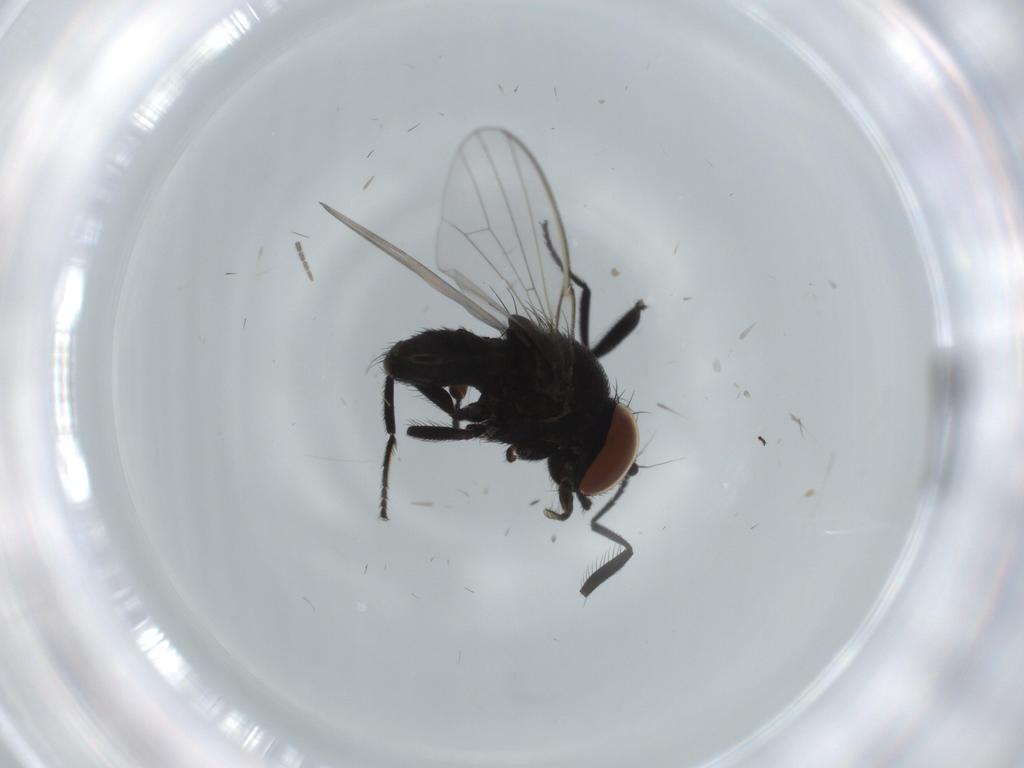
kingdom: Animalia
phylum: Arthropoda
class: Insecta
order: Diptera
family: Milichiidae
